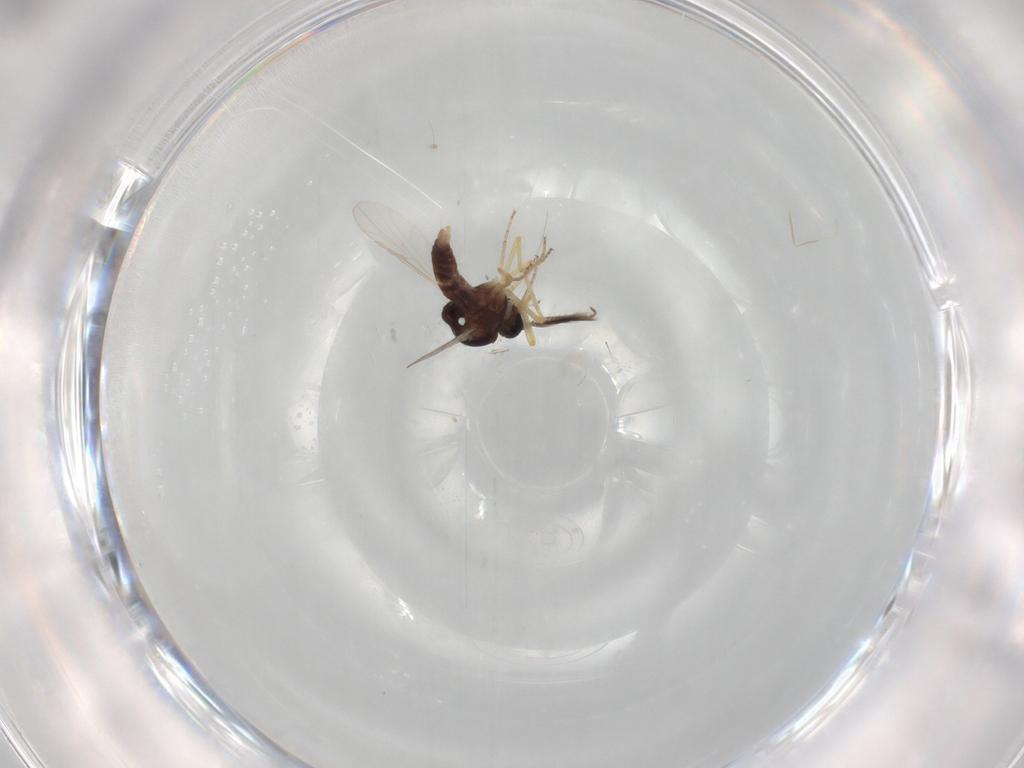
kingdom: Animalia
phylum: Arthropoda
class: Insecta
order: Diptera
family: Ceratopogonidae
